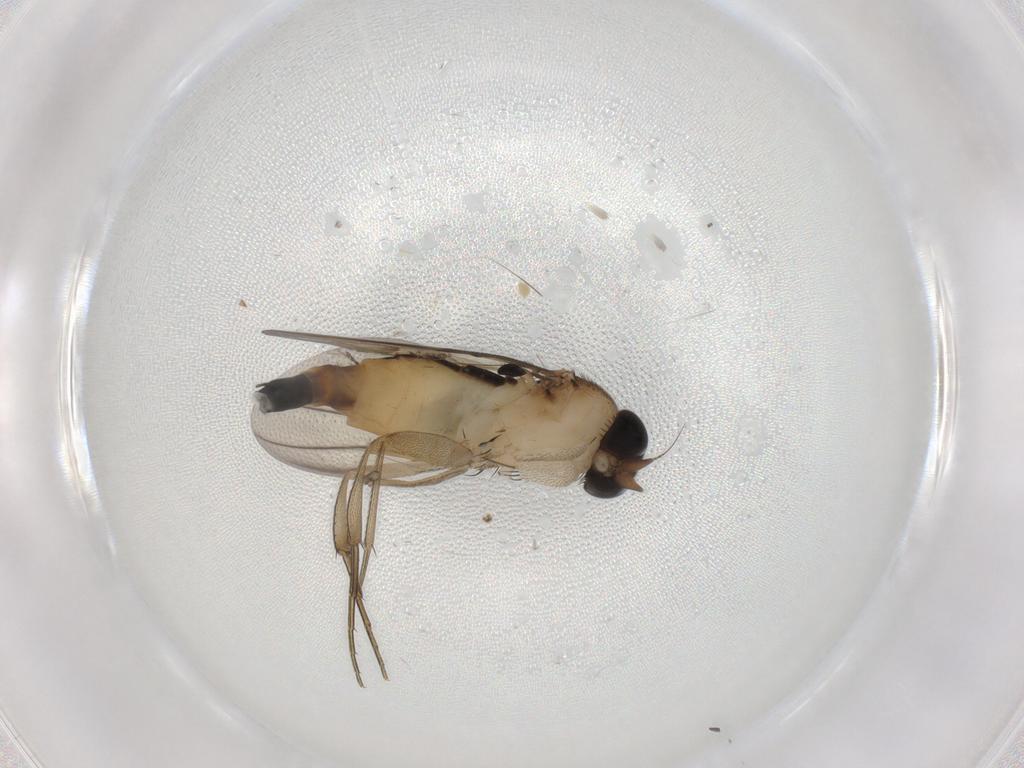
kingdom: Animalia
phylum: Arthropoda
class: Insecta
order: Diptera
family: Phoridae
